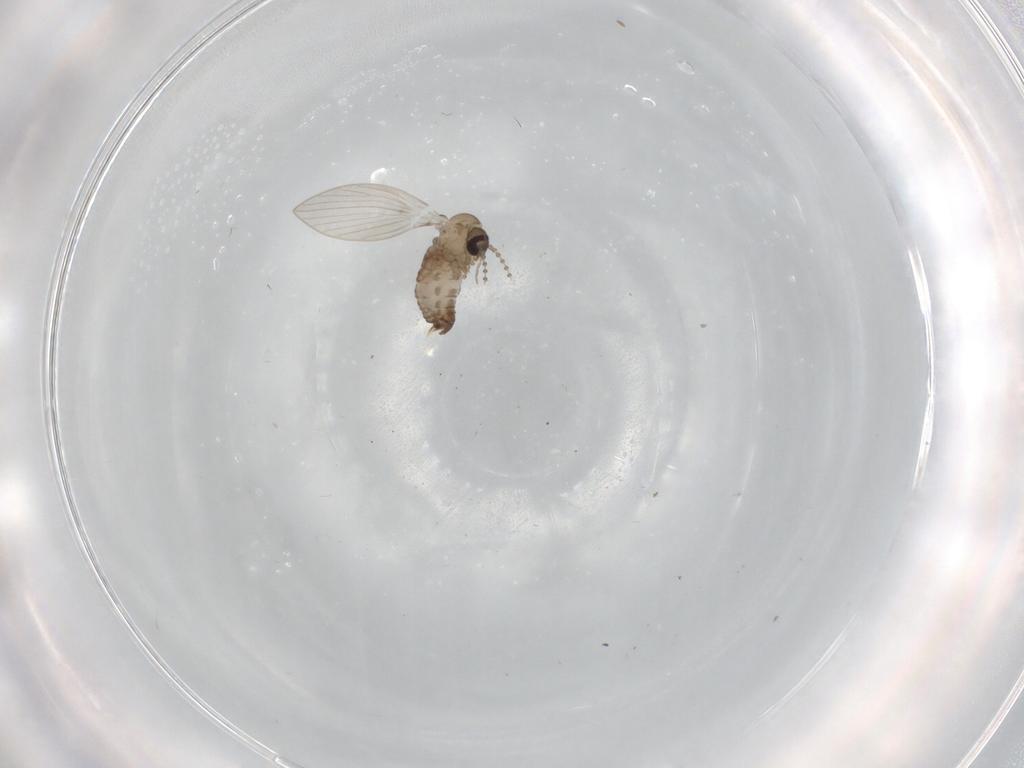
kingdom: Animalia
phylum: Arthropoda
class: Insecta
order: Diptera
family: Psychodidae
